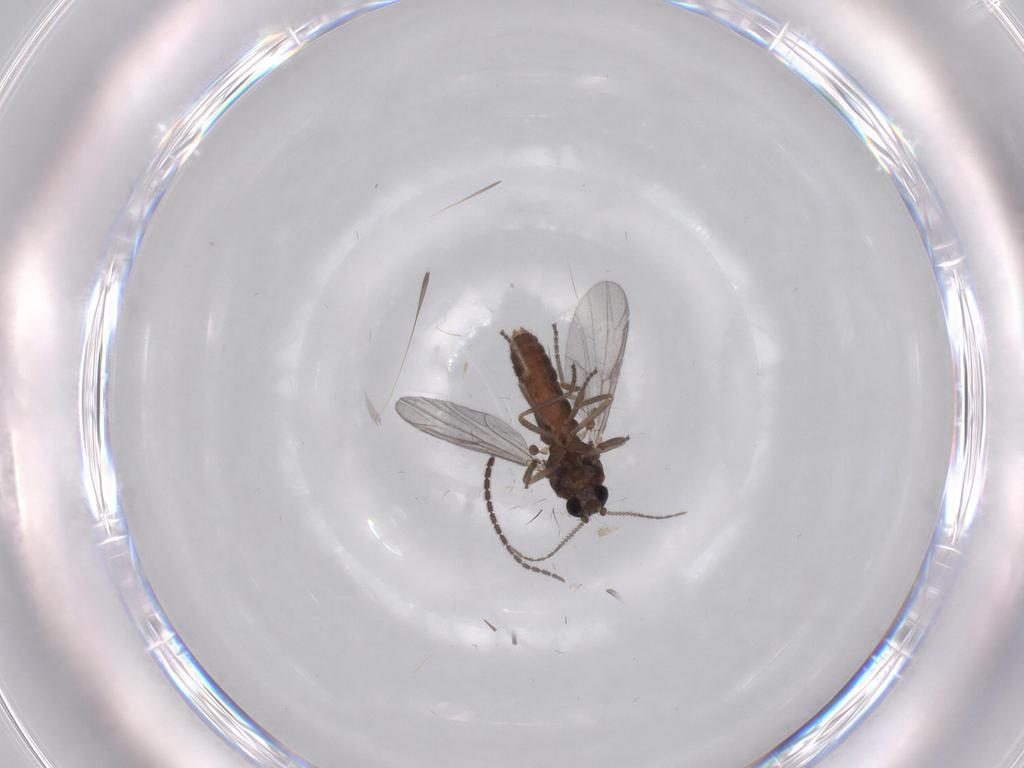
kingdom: Animalia
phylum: Arthropoda
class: Insecta
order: Diptera
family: Ceratopogonidae
